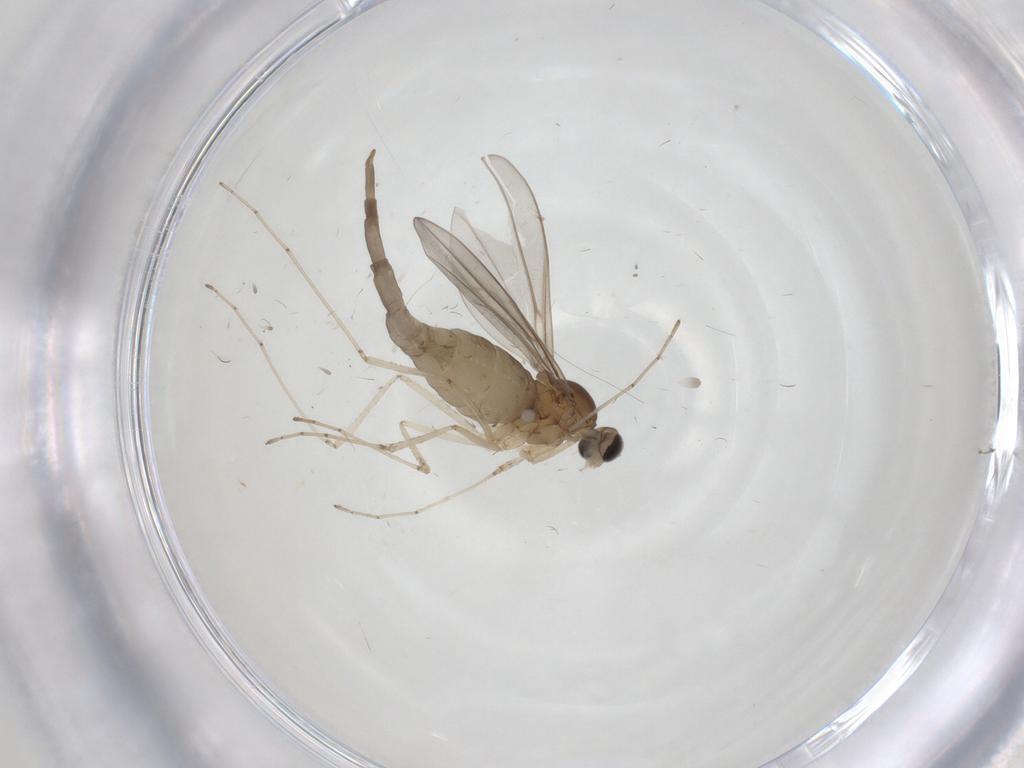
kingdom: Animalia
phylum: Arthropoda
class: Insecta
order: Diptera
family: Cecidomyiidae
